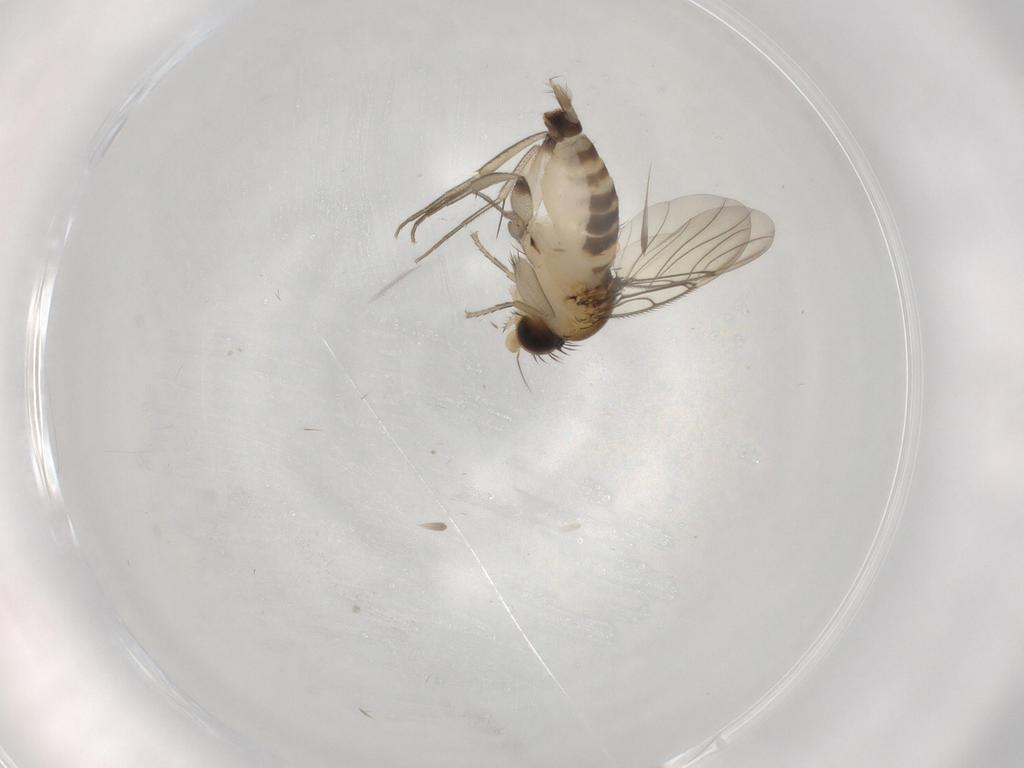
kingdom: Animalia
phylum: Arthropoda
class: Insecta
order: Diptera
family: Phoridae
